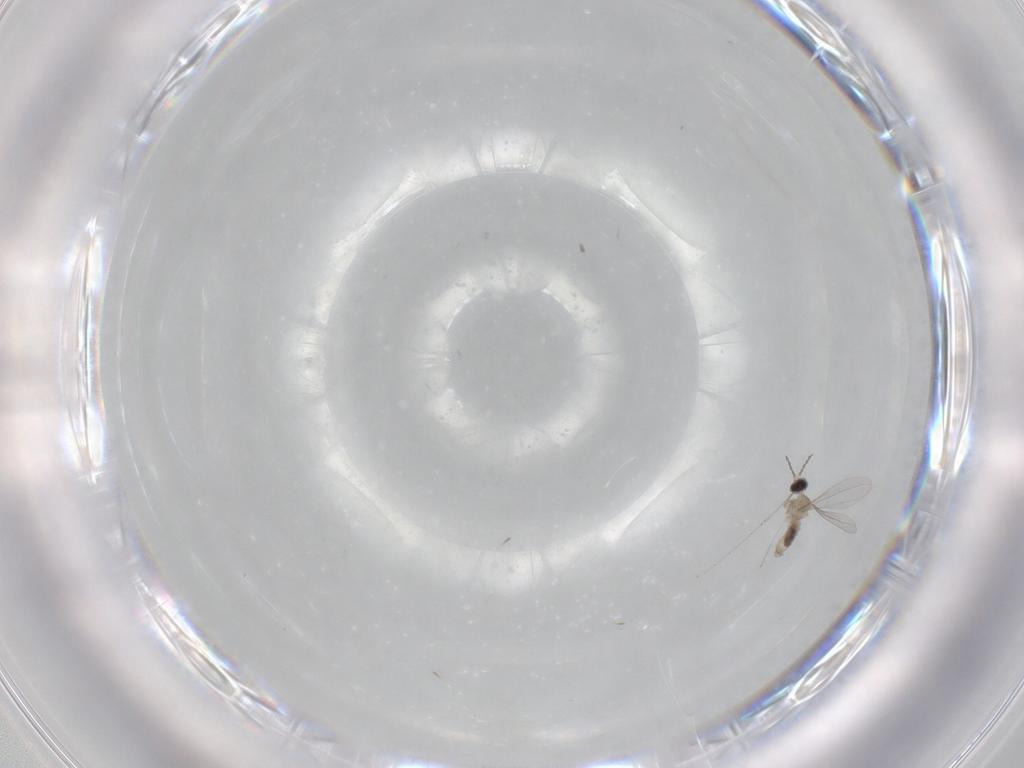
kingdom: Animalia
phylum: Arthropoda
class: Insecta
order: Diptera
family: Cecidomyiidae
